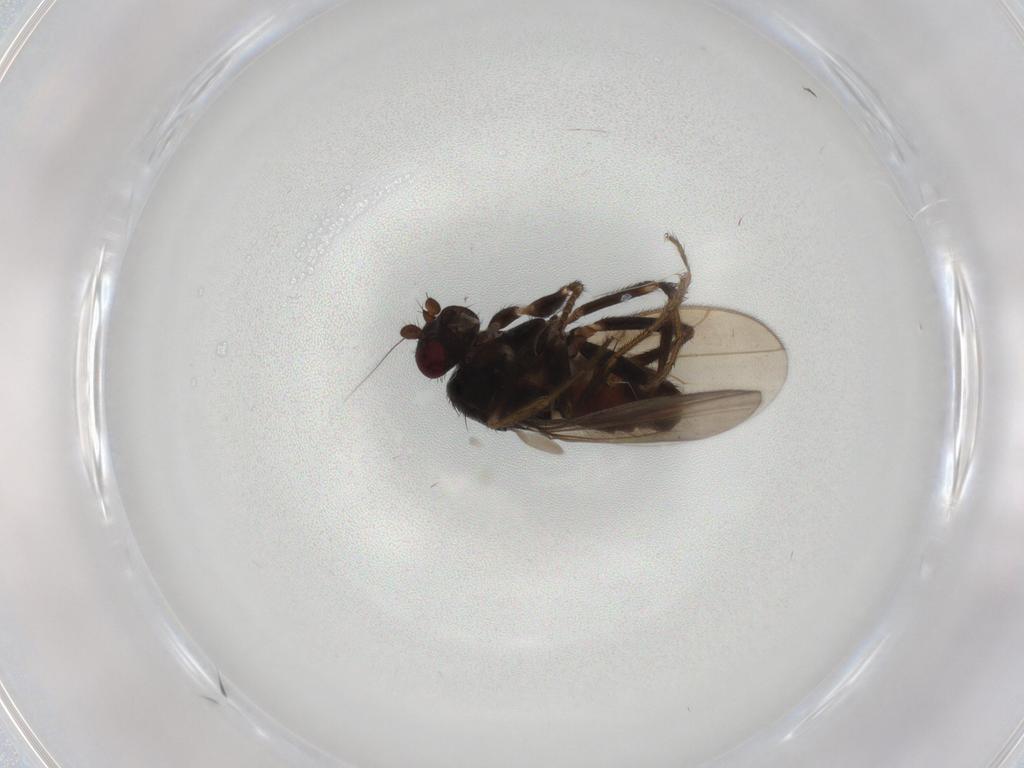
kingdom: Animalia
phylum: Arthropoda
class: Insecta
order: Diptera
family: Sphaeroceridae
